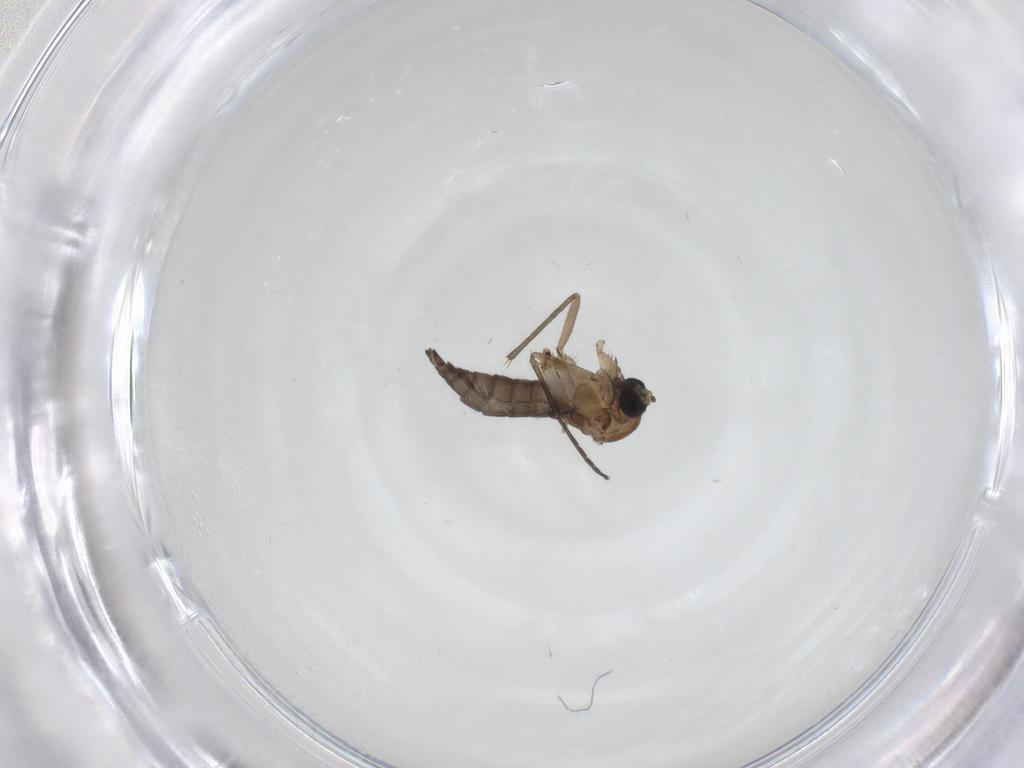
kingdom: Animalia
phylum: Arthropoda
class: Insecta
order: Diptera
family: Sciaridae
